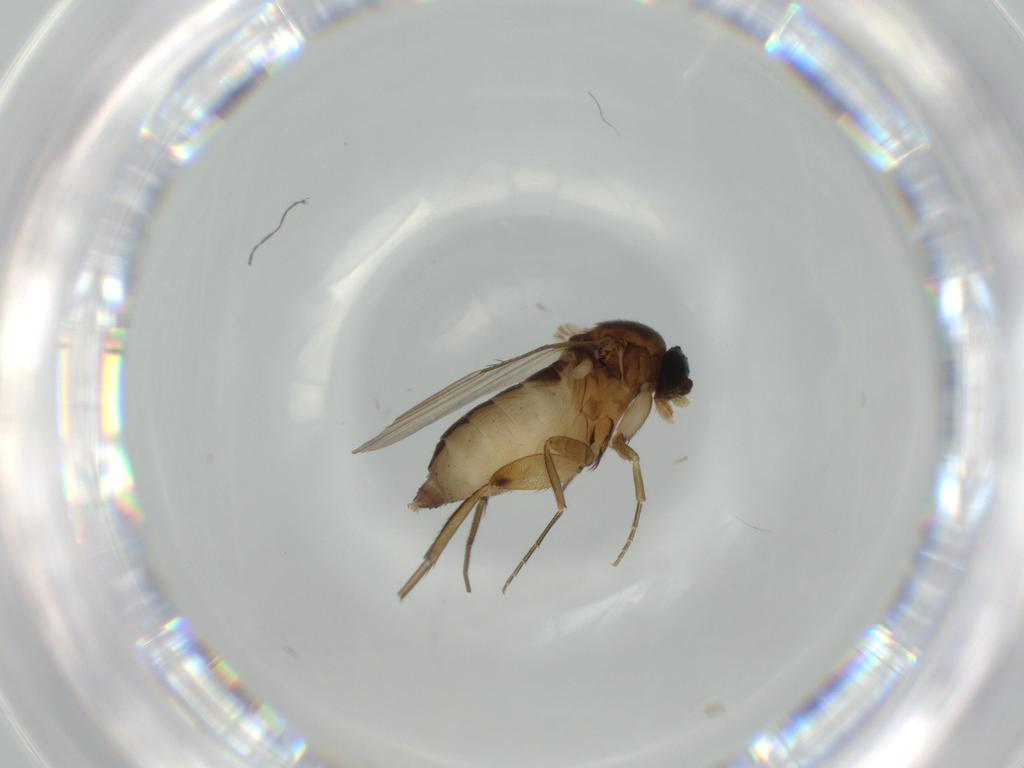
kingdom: Animalia
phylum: Arthropoda
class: Insecta
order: Diptera
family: Phoridae
